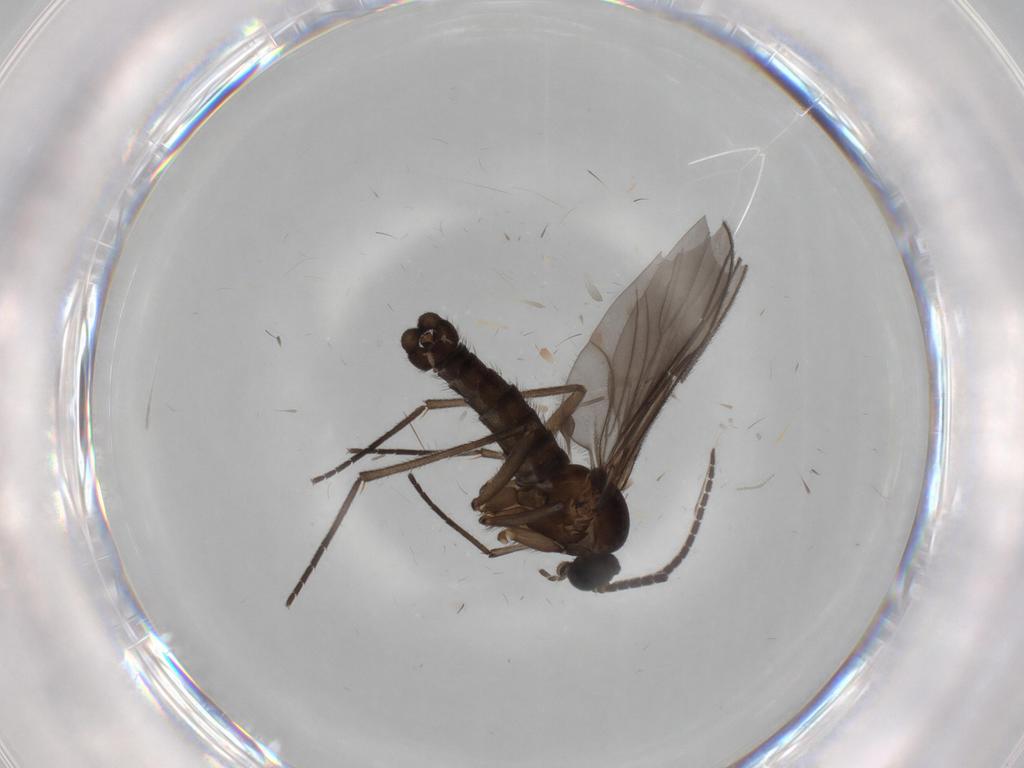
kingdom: Animalia
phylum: Arthropoda
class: Insecta
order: Diptera
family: Sciaridae
